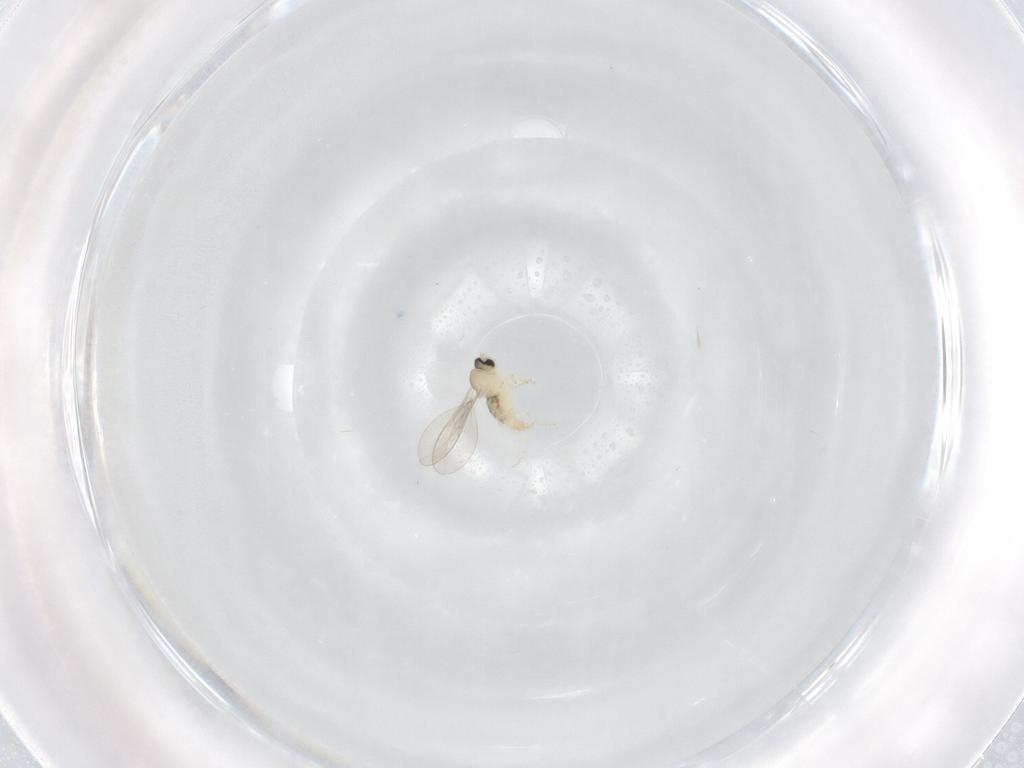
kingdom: Animalia
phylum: Arthropoda
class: Insecta
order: Diptera
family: Cecidomyiidae
